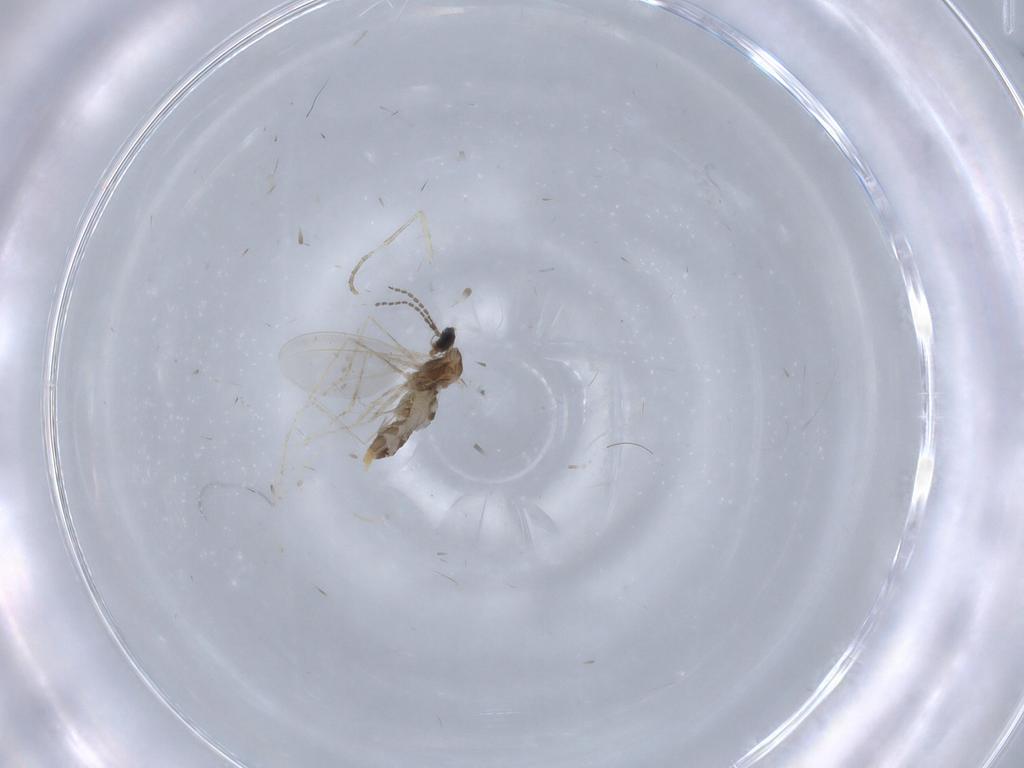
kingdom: Animalia
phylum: Arthropoda
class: Insecta
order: Diptera
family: Cecidomyiidae
